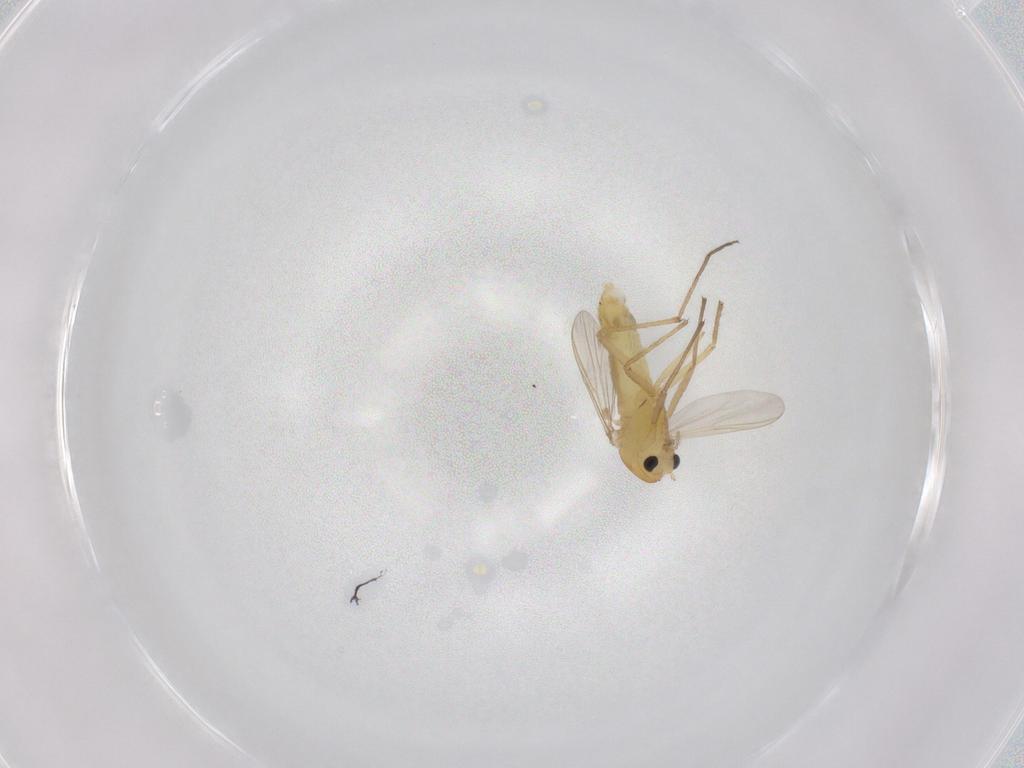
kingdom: Animalia
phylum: Arthropoda
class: Insecta
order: Diptera
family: Chironomidae
